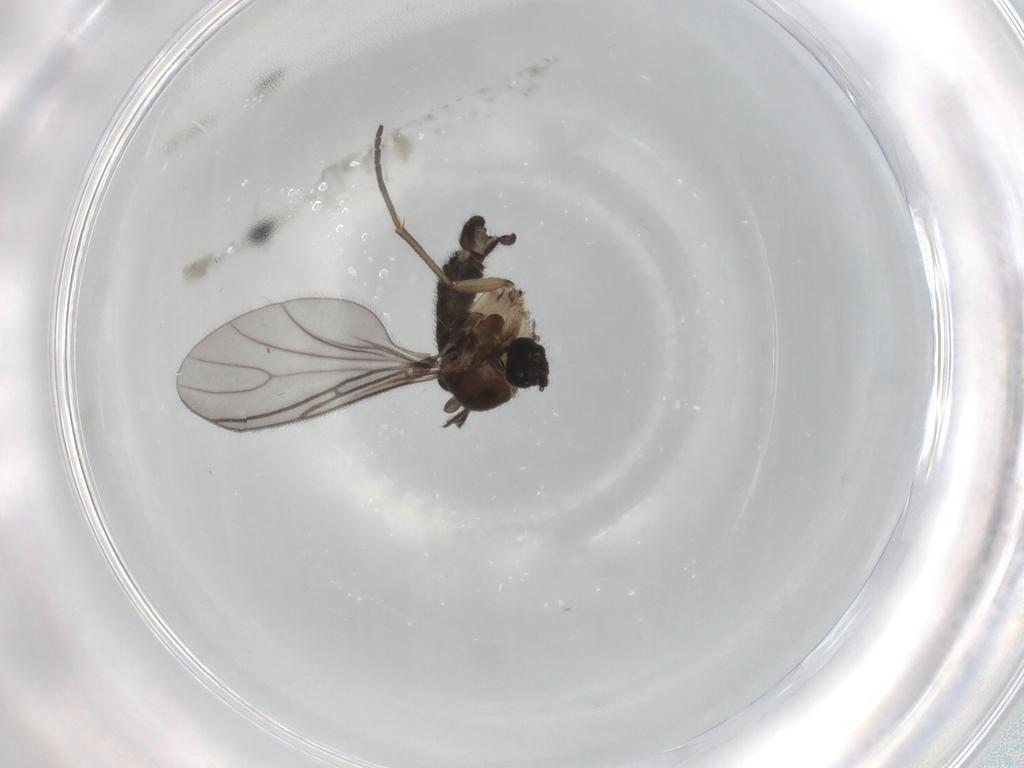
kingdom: Animalia
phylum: Arthropoda
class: Insecta
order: Diptera
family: Sciaridae
